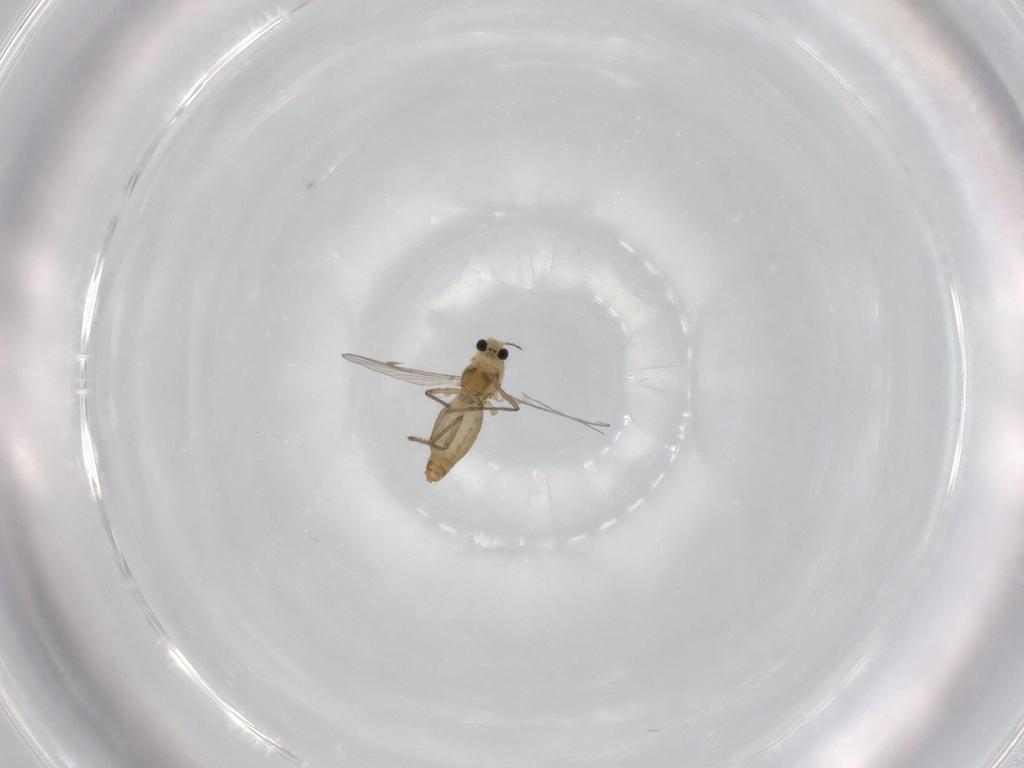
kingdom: Animalia
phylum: Arthropoda
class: Insecta
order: Diptera
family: Chironomidae
